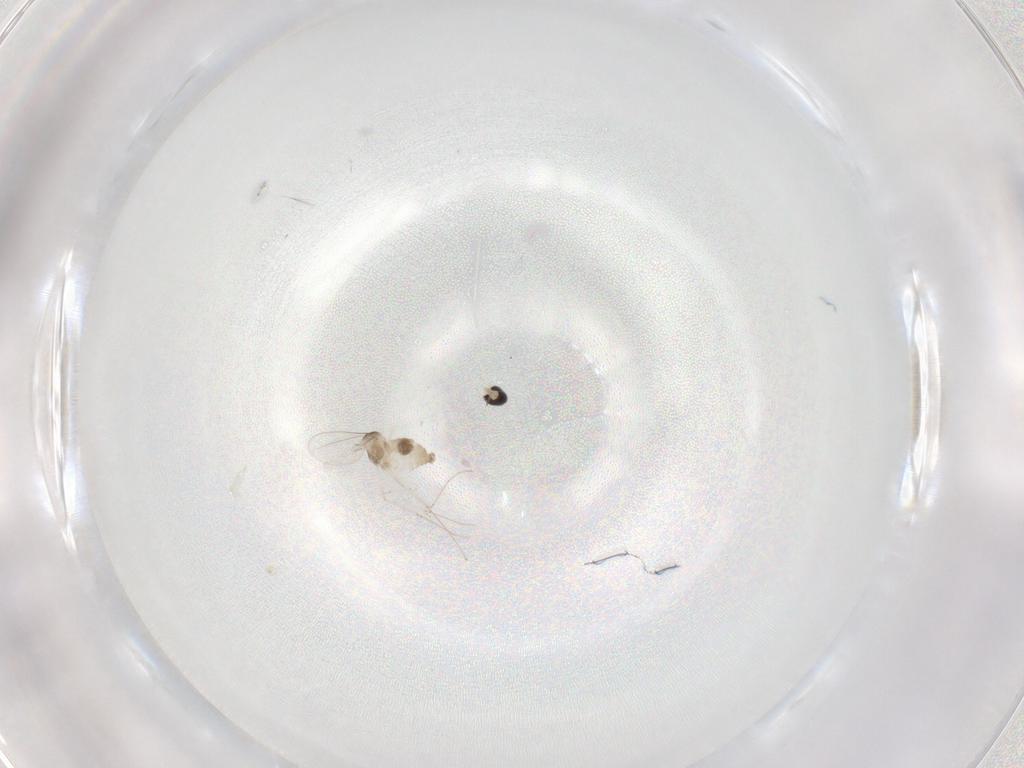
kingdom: Animalia
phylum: Arthropoda
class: Insecta
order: Diptera
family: Cecidomyiidae
